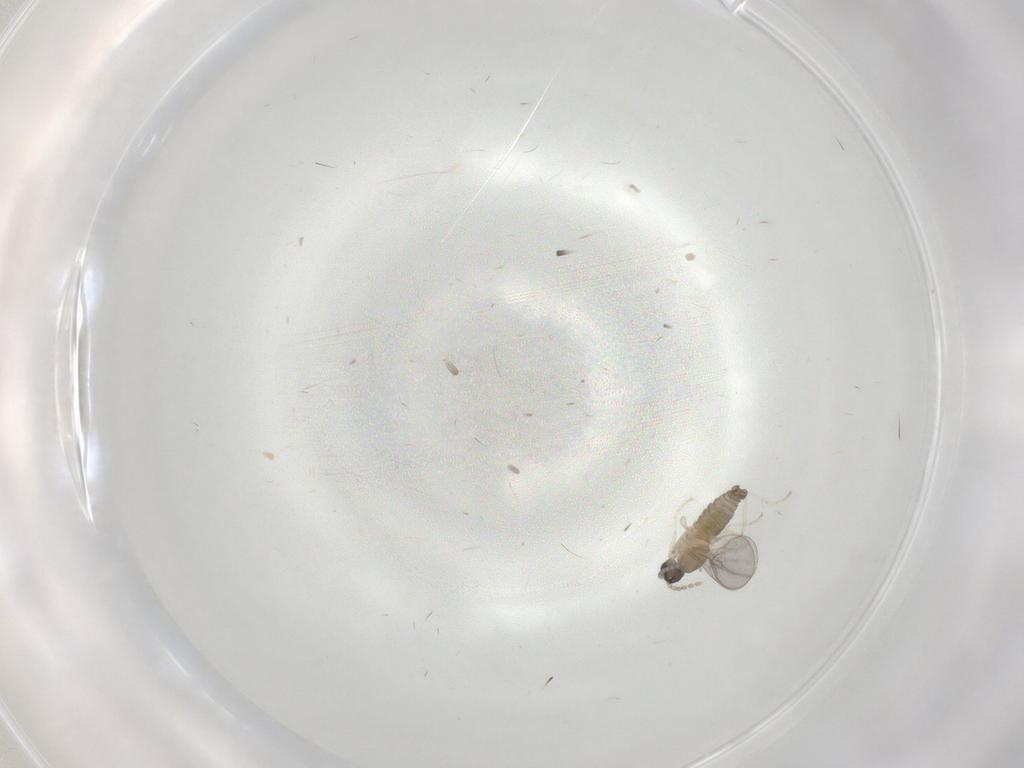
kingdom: Animalia
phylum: Arthropoda
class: Insecta
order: Diptera
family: Cecidomyiidae
